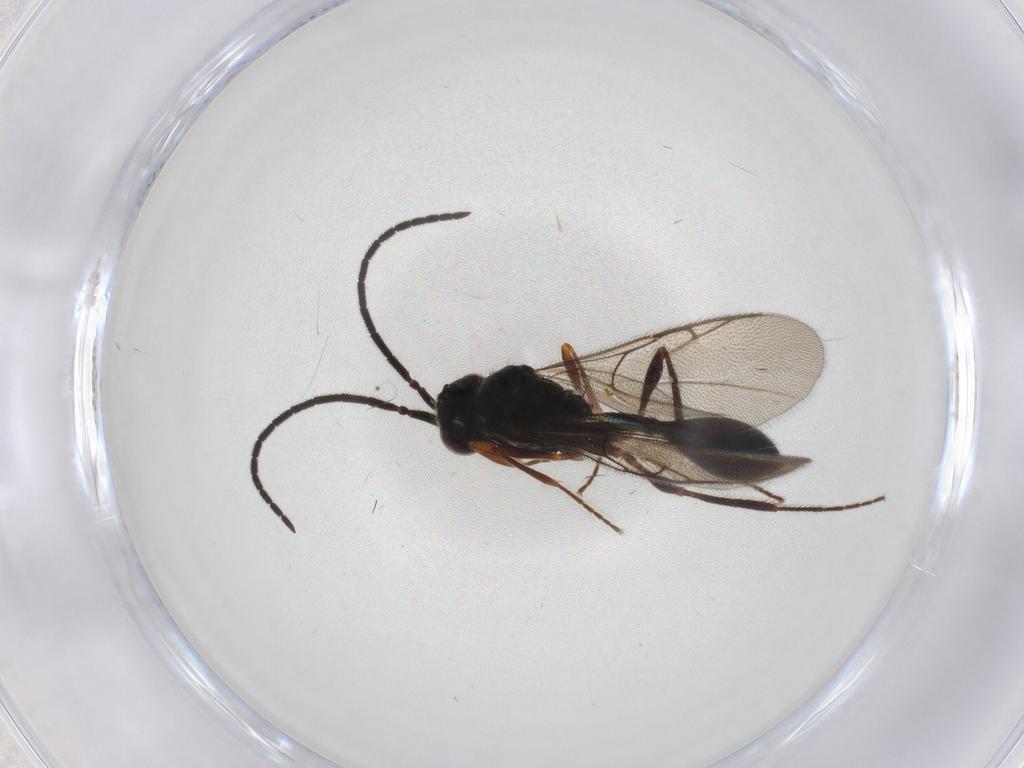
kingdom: Animalia
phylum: Arthropoda
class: Insecta
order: Hymenoptera
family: Diapriidae
